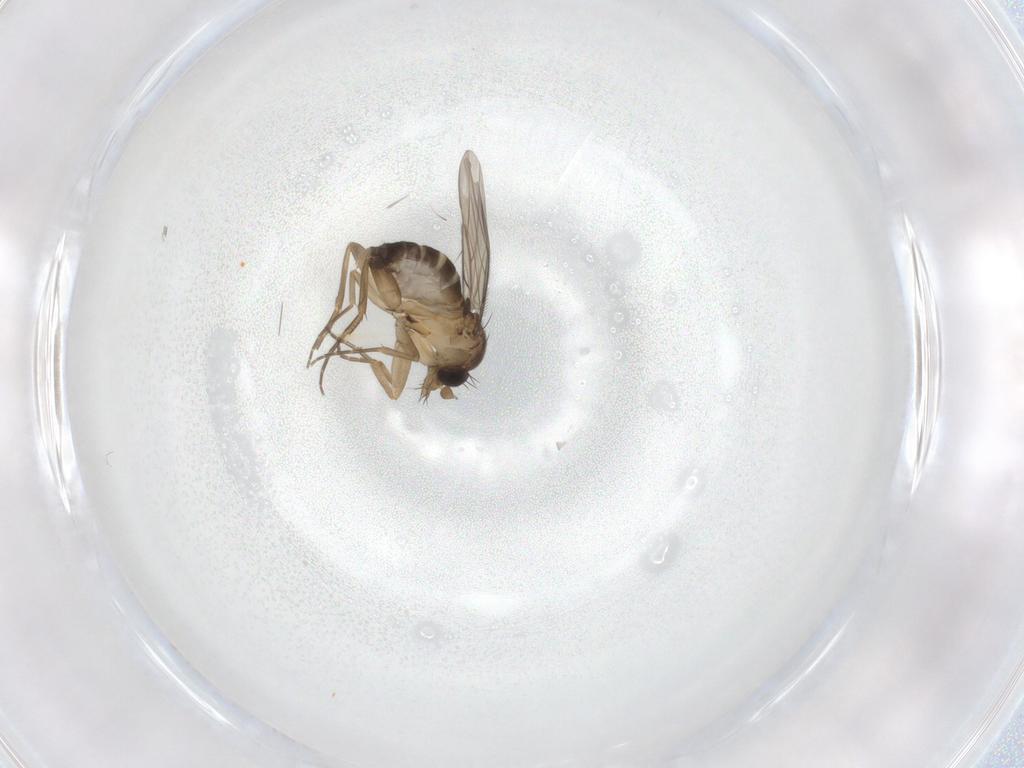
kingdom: Animalia
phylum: Arthropoda
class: Insecta
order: Diptera
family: Phoridae
